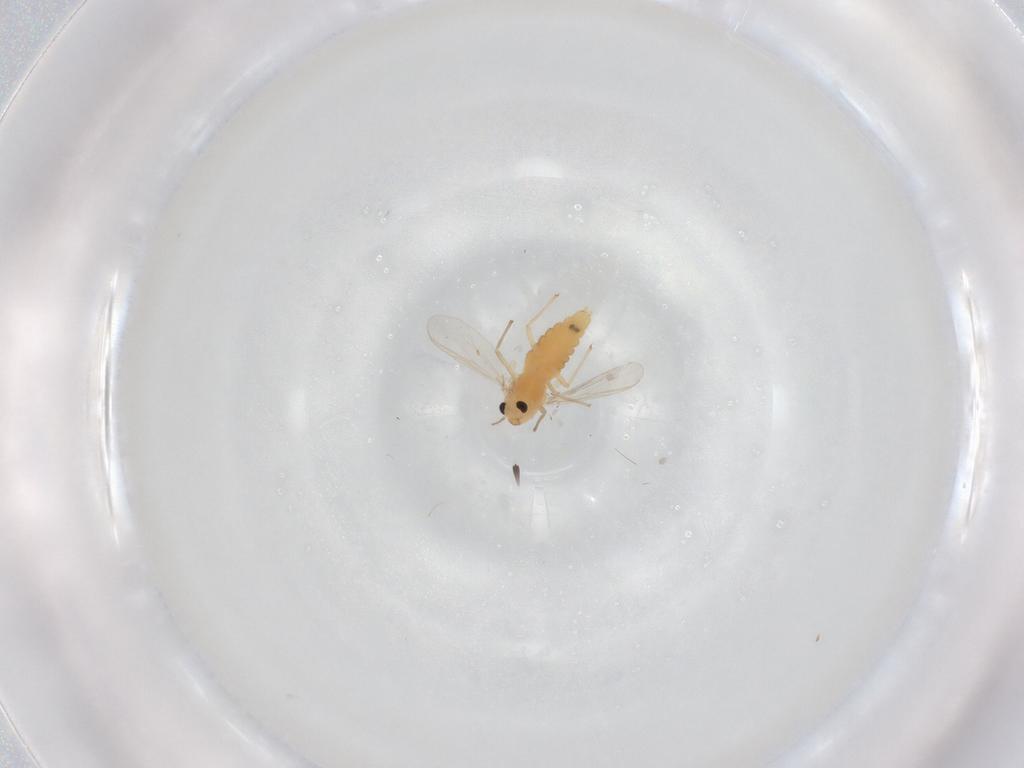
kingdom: Animalia
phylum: Arthropoda
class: Insecta
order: Diptera
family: Chironomidae
